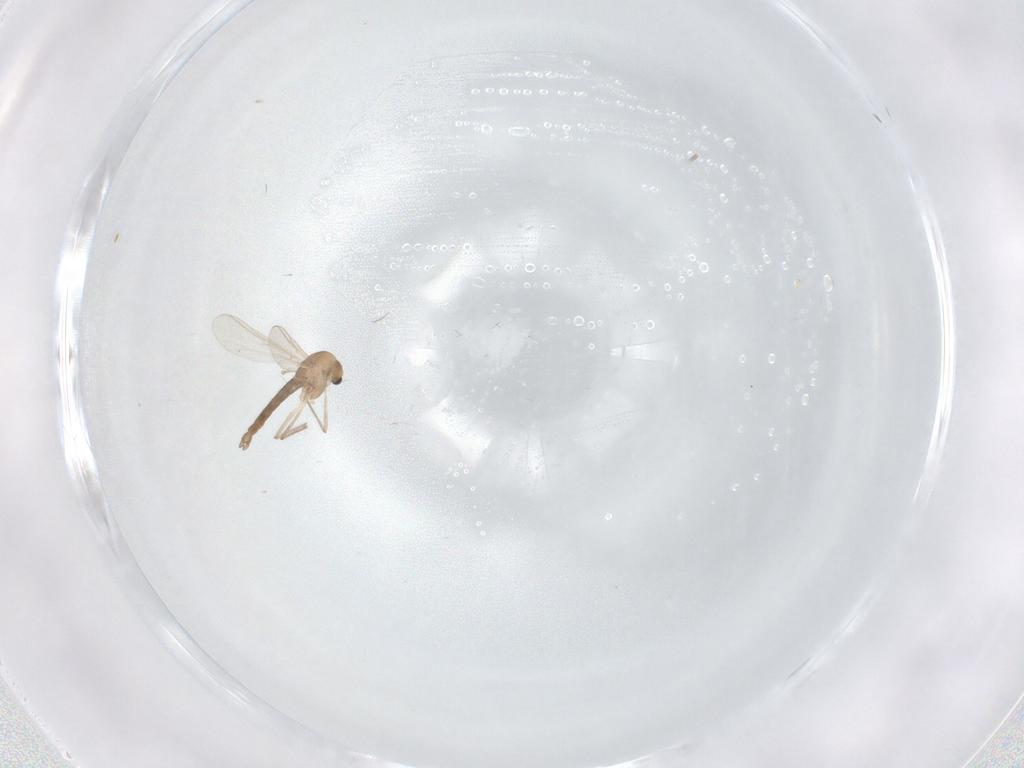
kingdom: Animalia
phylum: Arthropoda
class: Insecta
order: Diptera
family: Chironomidae
